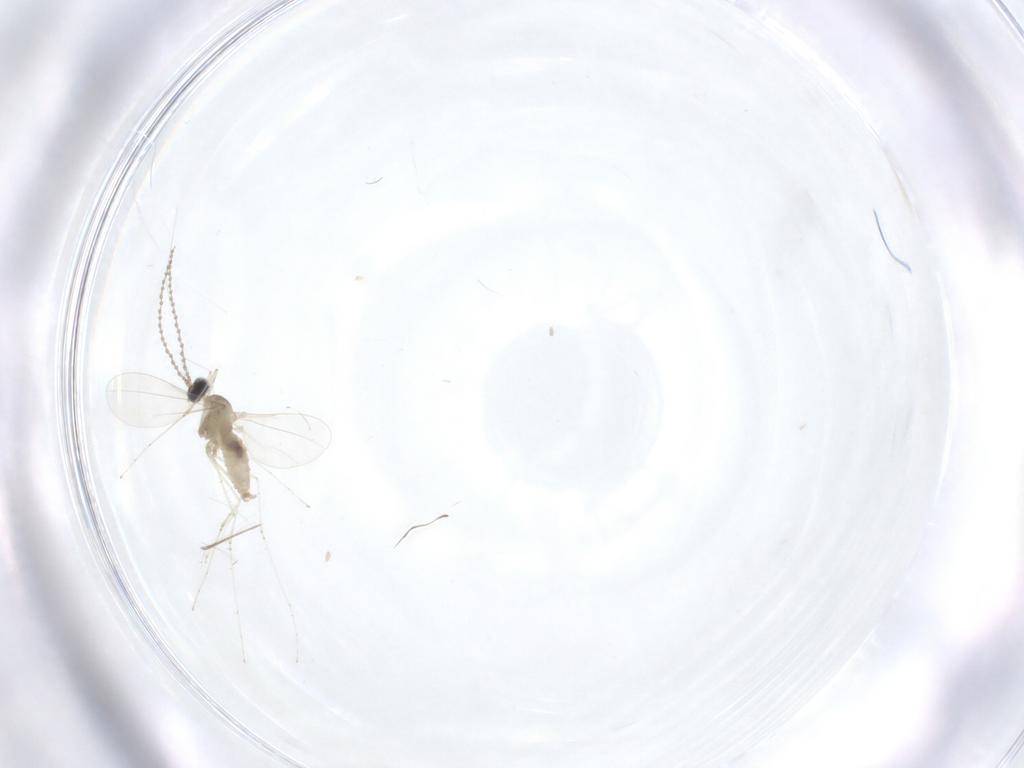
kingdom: Animalia
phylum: Arthropoda
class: Insecta
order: Diptera
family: Cecidomyiidae
